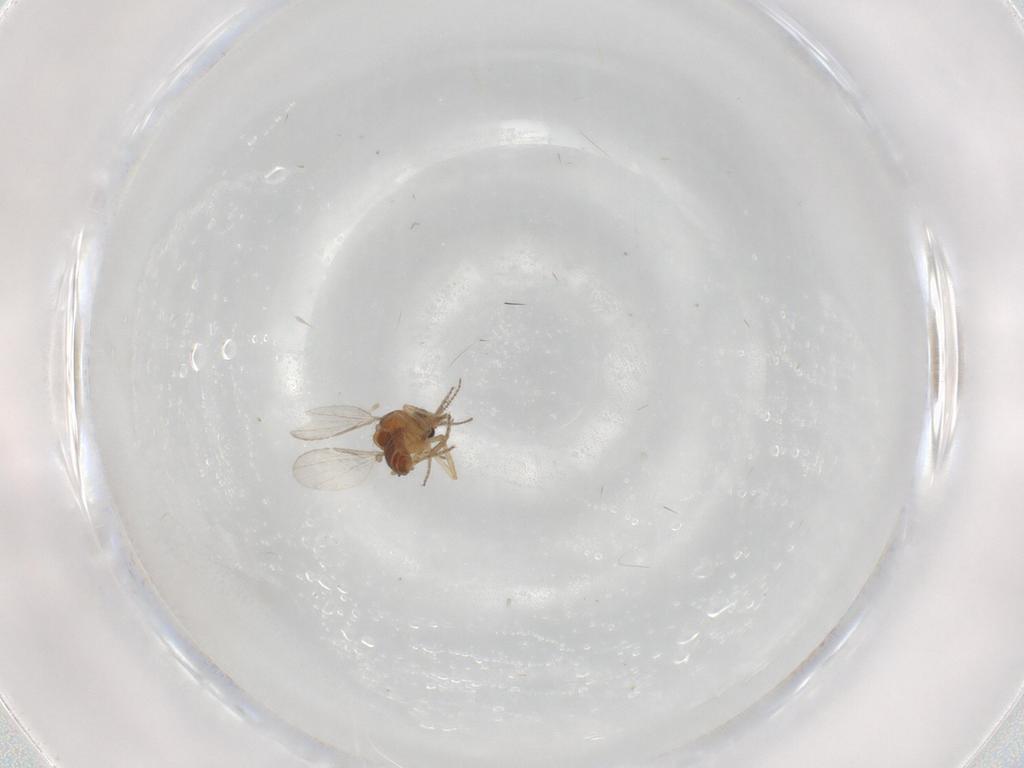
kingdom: Animalia
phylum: Arthropoda
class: Insecta
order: Diptera
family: Ceratopogonidae
